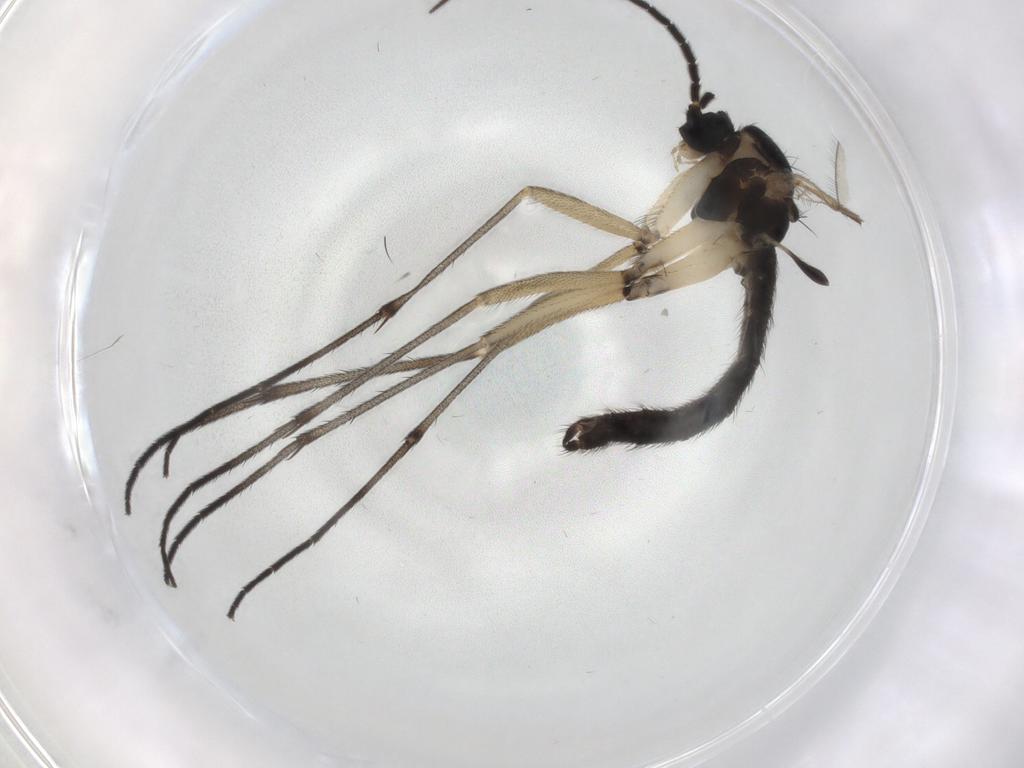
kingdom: Animalia
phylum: Arthropoda
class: Insecta
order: Diptera
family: Sciaridae
